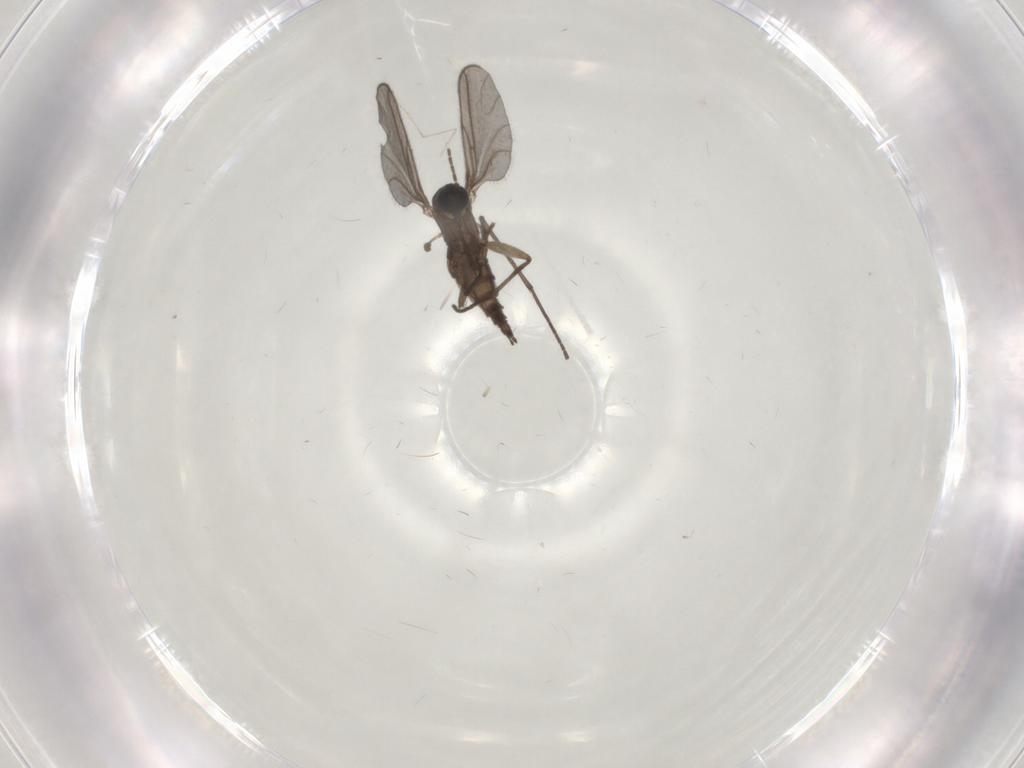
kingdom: Animalia
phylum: Arthropoda
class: Insecta
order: Diptera
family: Sciaridae
